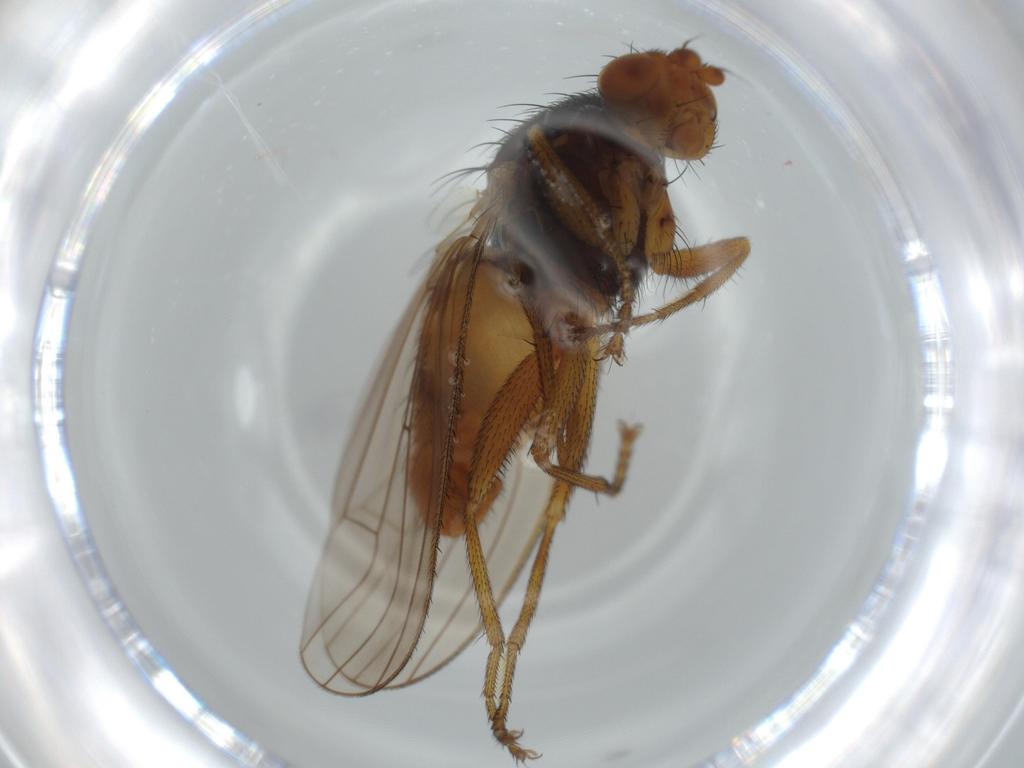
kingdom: Animalia
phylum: Arthropoda
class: Insecta
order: Diptera
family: Heleomyzidae
